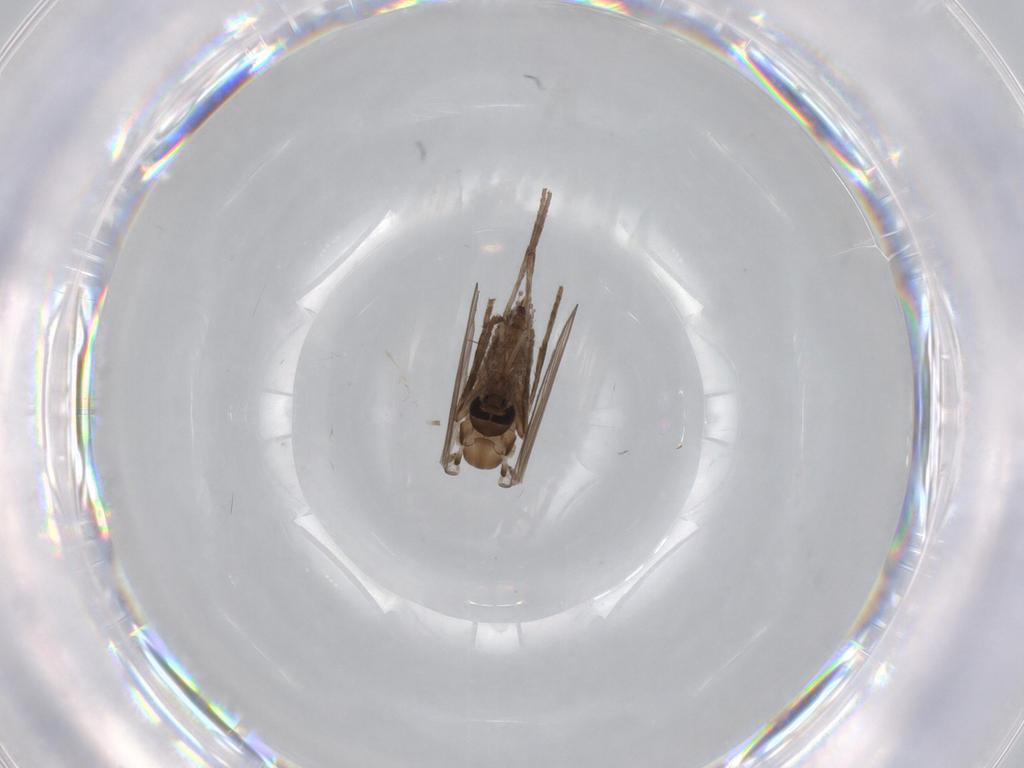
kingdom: Animalia
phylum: Arthropoda
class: Insecta
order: Diptera
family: Psychodidae
